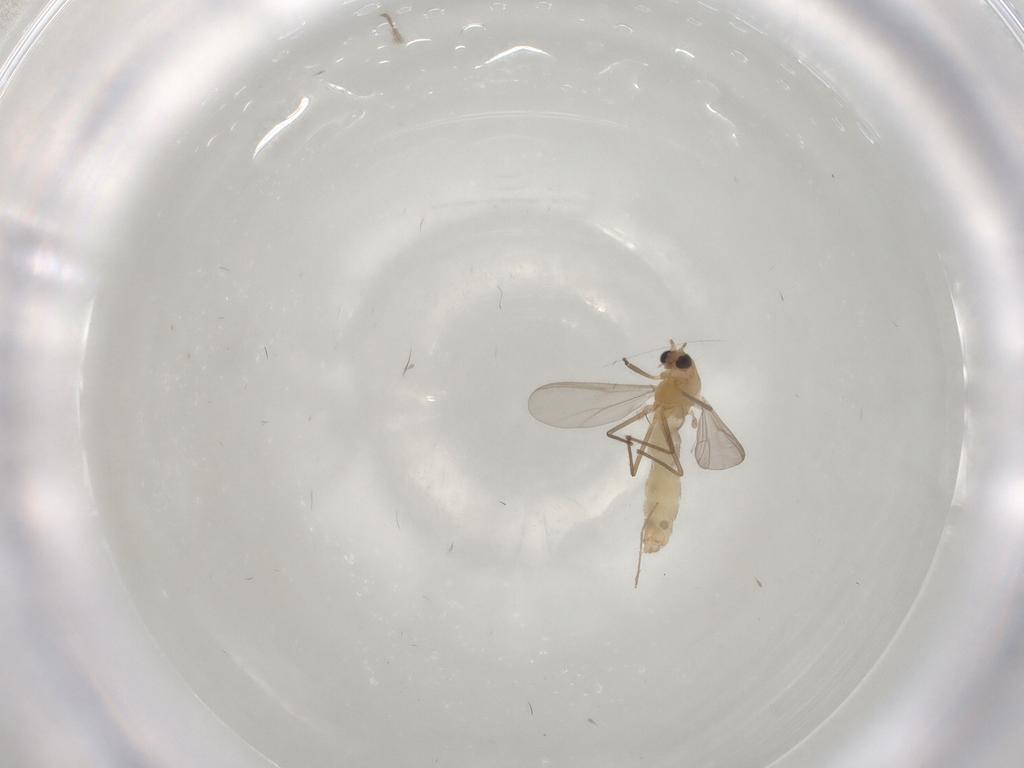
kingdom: Animalia
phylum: Arthropoda
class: Insecta
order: Diptera
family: Chironomidae
